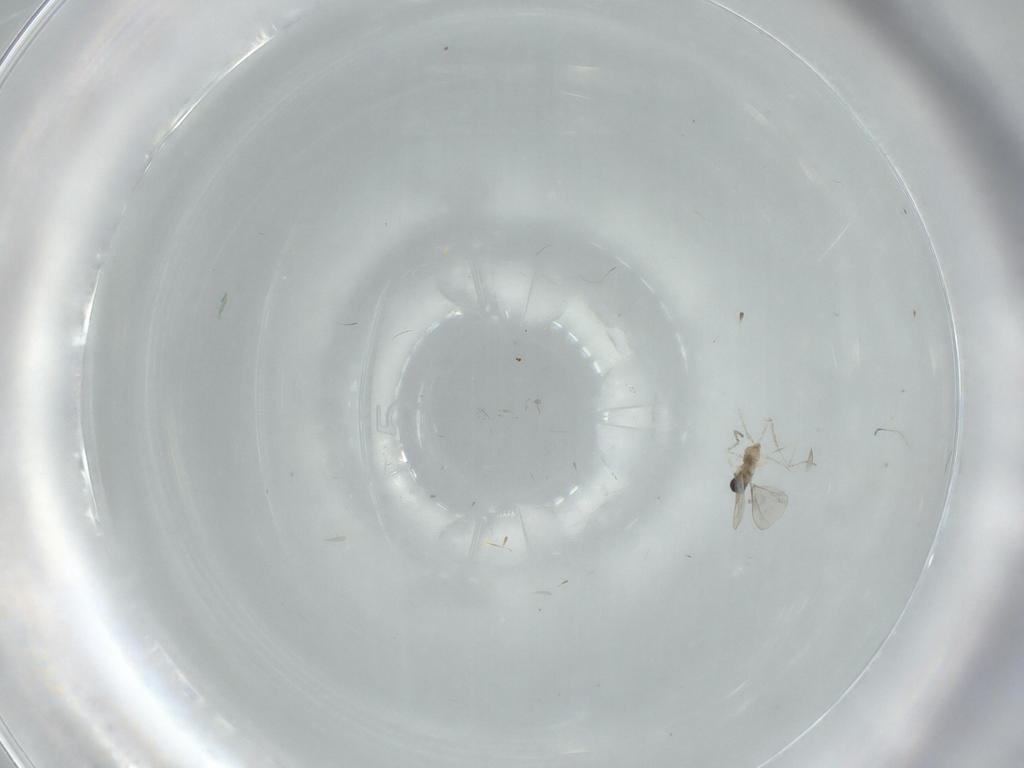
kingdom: Animalia
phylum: Arthropoda
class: Insecta
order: Diptera
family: Cecidomyiidae
